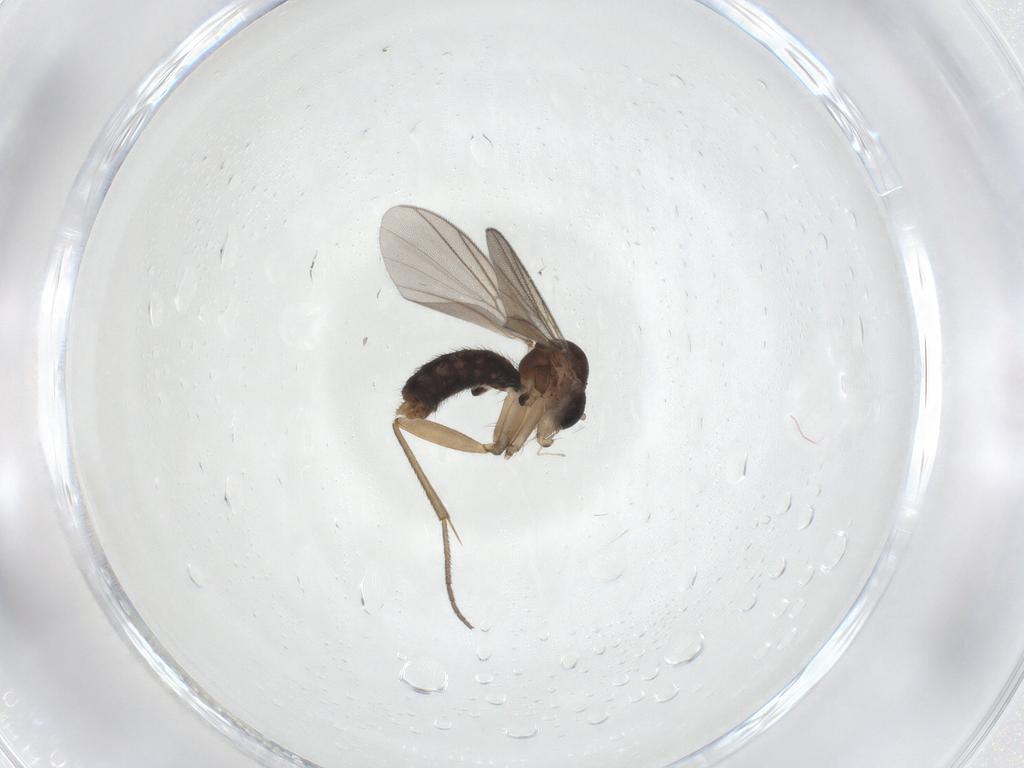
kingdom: Animalia
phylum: Arthropoda
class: Insecta
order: Diptera
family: Mycetophilidae
